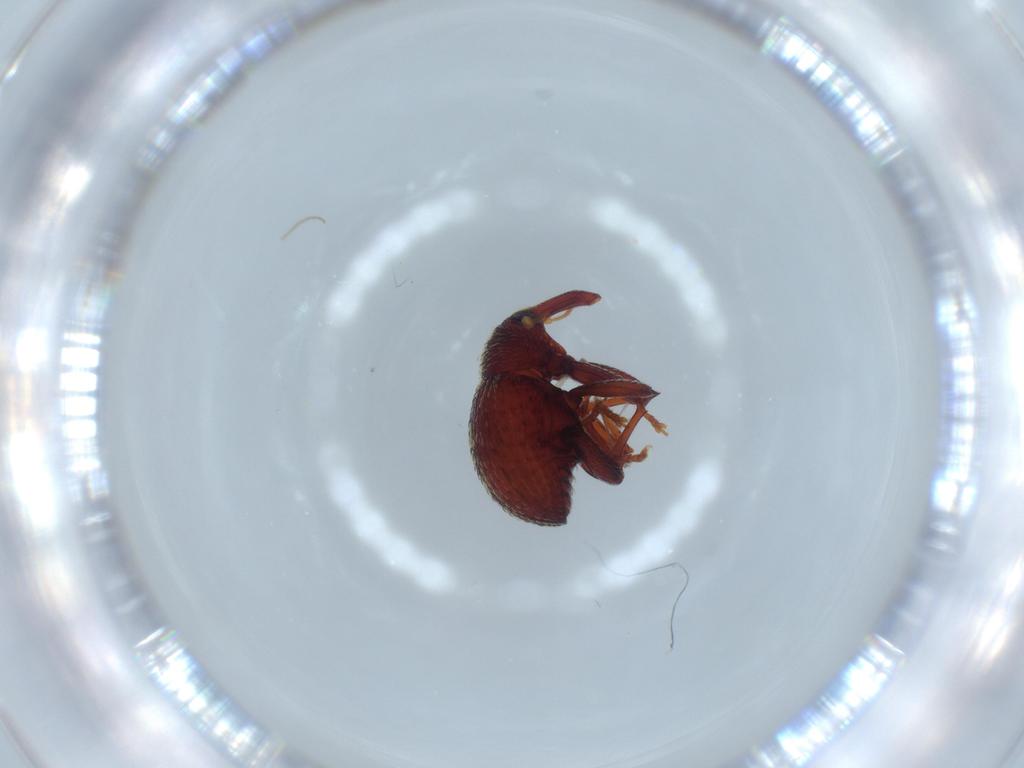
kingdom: Animalia
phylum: Arthropoda
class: Insecta
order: Coleoptera
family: Curculionidae
